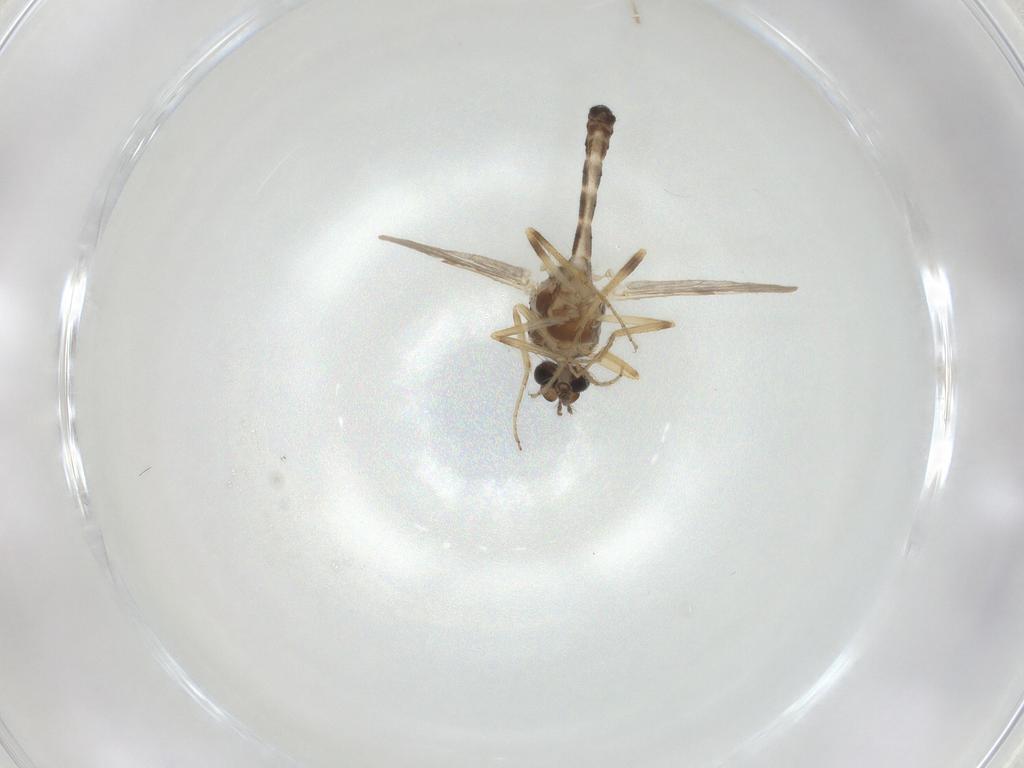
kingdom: Animalia
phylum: Arthropoda
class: Insecta
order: Diptera
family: Ceratopogonidae
